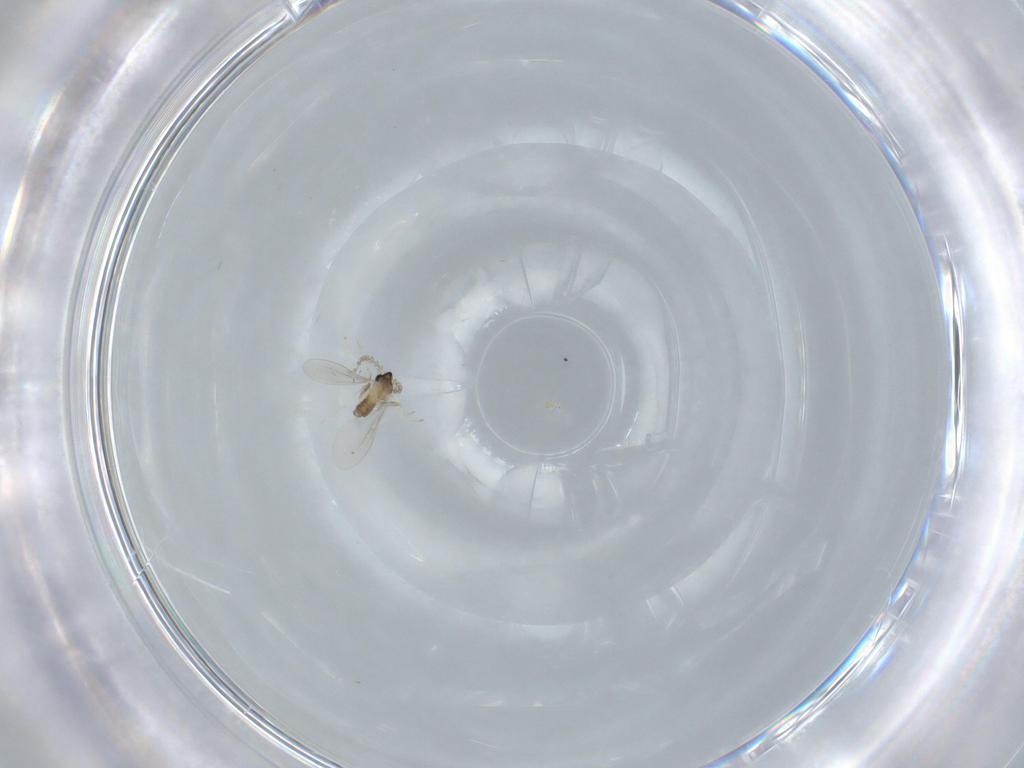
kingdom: Animalia
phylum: Arthropoda
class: Insecta
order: Diptera
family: Cecidomyiidae
